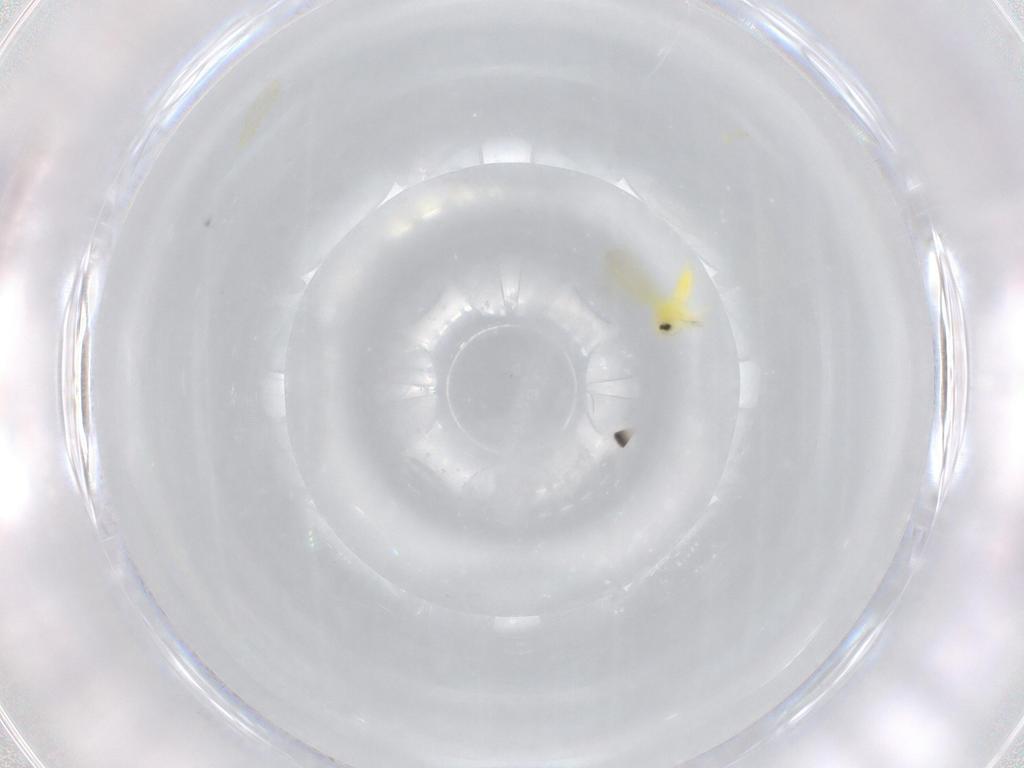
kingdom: Animalia
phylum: Arthropoda
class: Insecta
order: Hemiptera
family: Aleyrodidae
